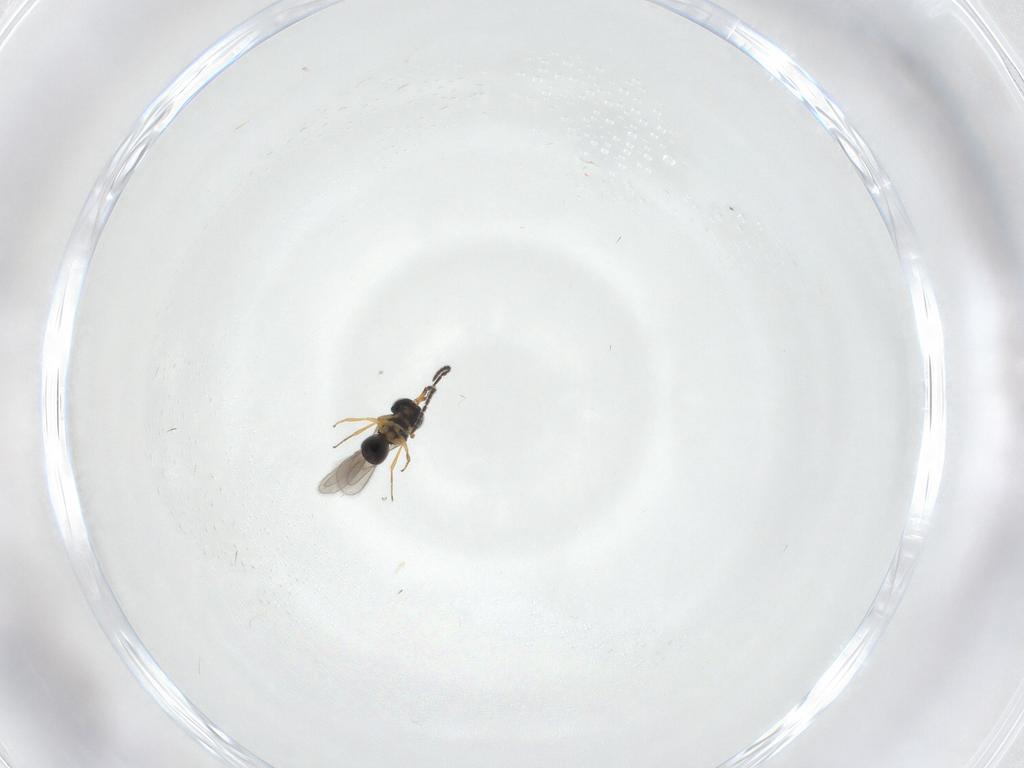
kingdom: Animalia
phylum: Arthropoda
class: Insecta
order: Hymenoptera
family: Scelionidae
